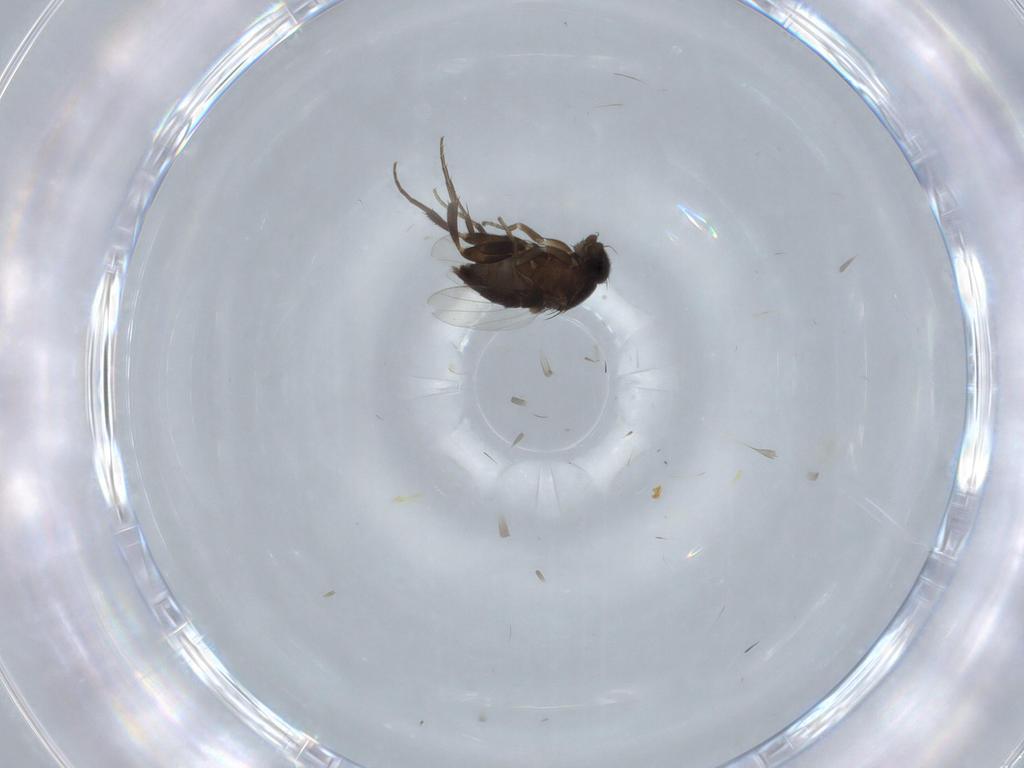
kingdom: Animalia
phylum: Arthropoda
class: Insecta
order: Diptera
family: Phoridae
